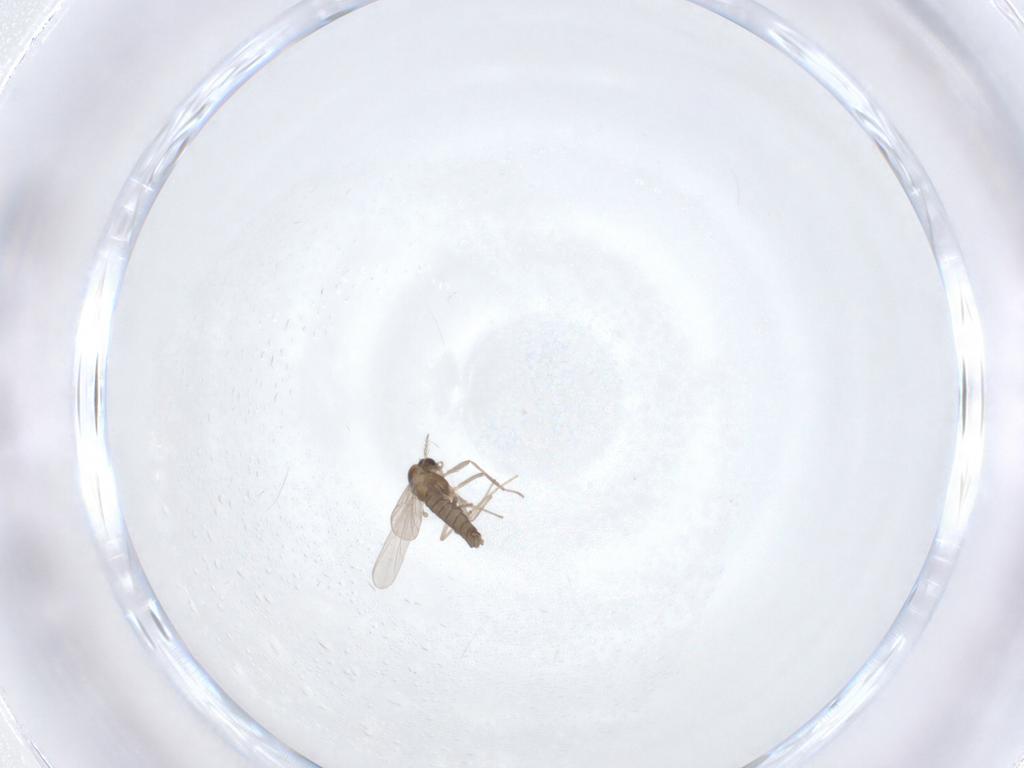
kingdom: Animalia
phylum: Arthropoda
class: Insecta
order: Diptera
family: Chironomidae
